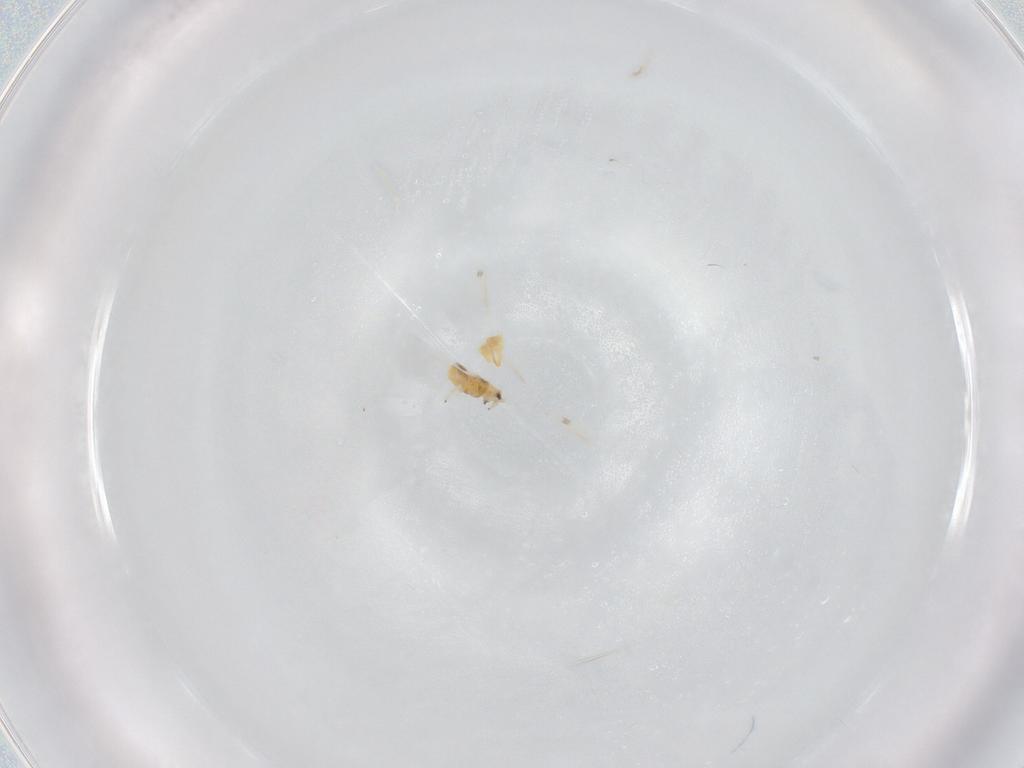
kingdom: Animalia
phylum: Arthropoda
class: Insecta
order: Thysanoptera
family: Thripidae
